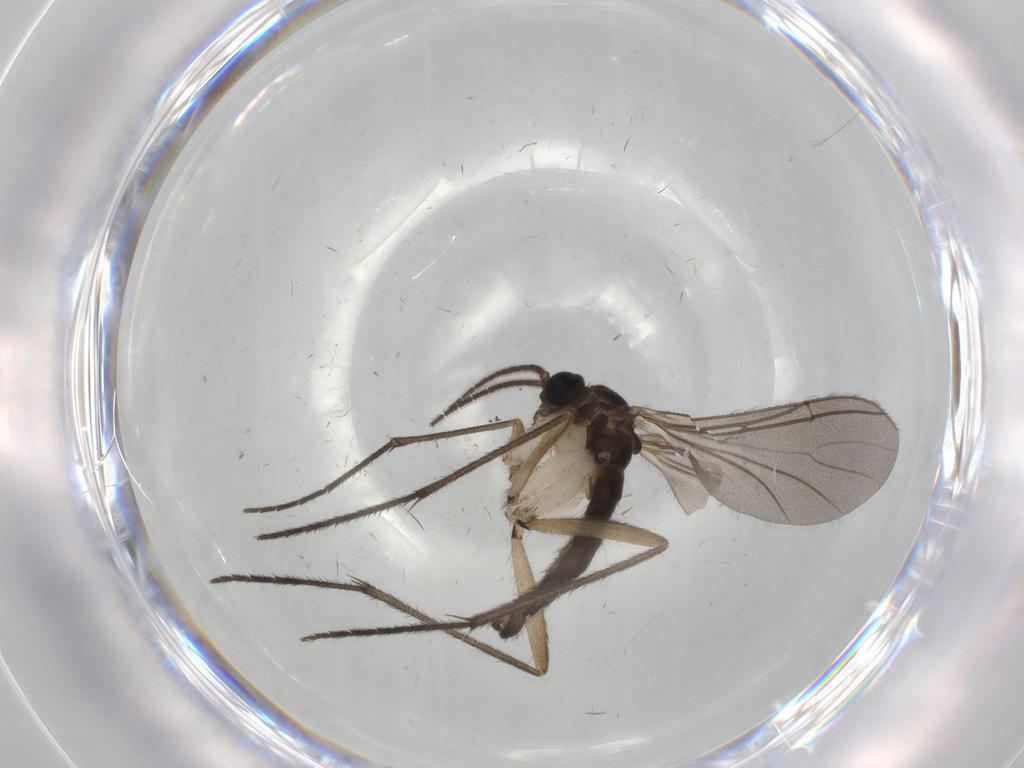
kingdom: Animalia
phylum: Arthropoda
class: Insecta
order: Diptera
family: Sciaridae
